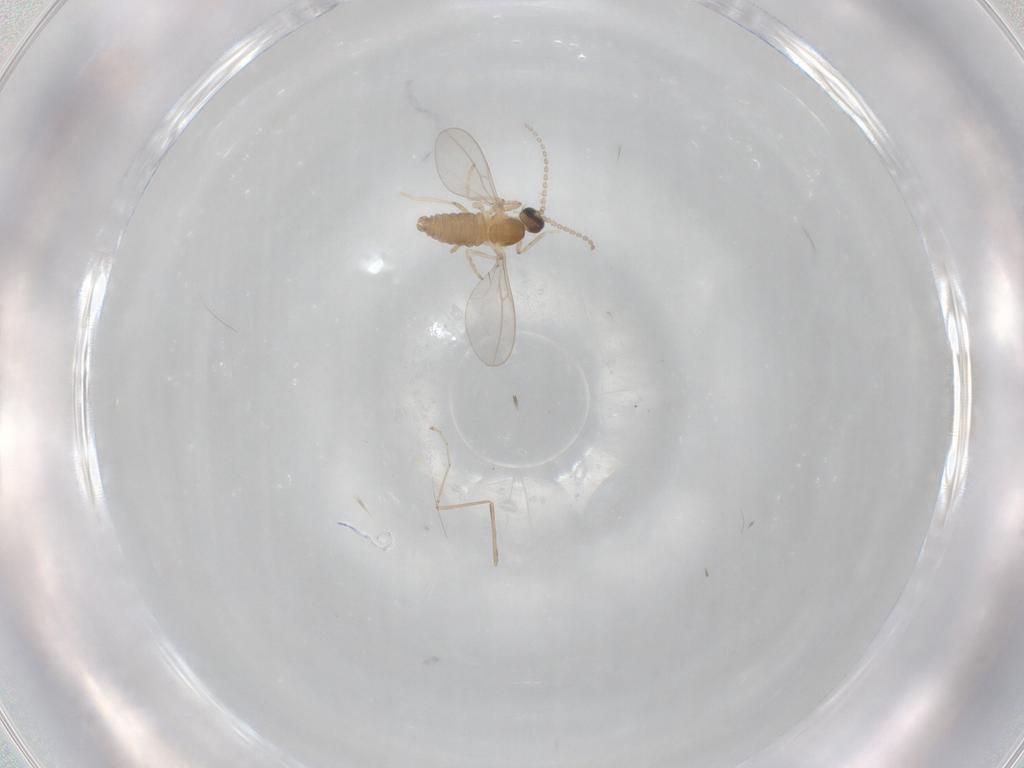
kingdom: Animalia
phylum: Arthropoda
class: Insecta
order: Diptera
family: Cecidomyiidae
